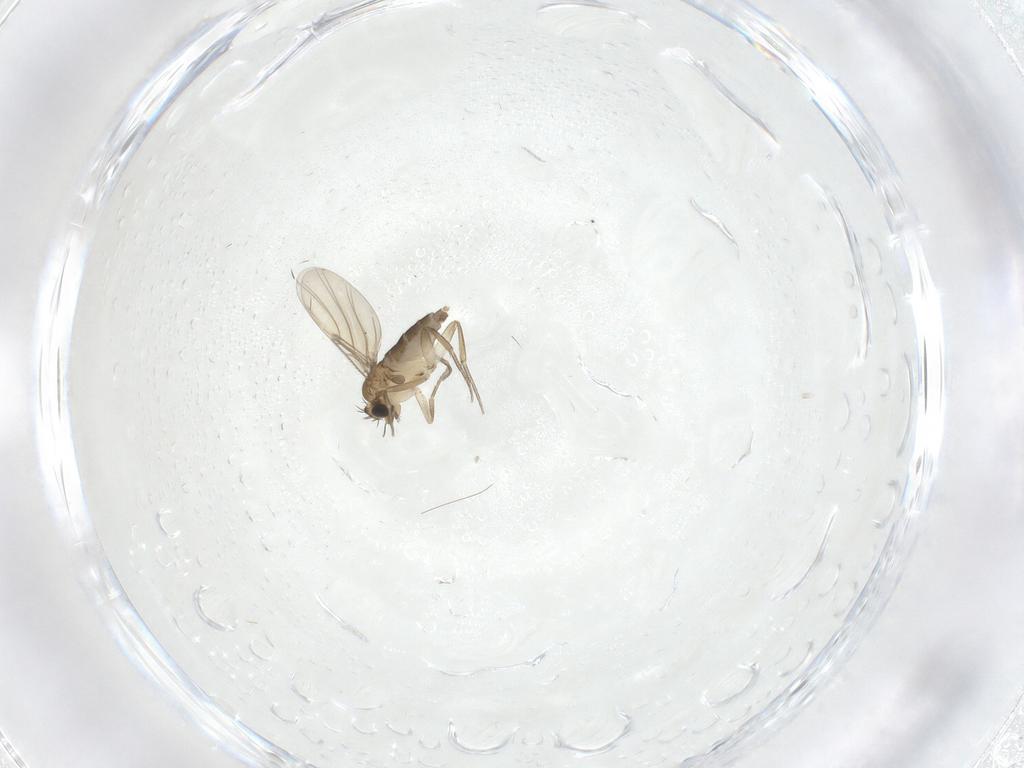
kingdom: Animalia
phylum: Arthropoda
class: Insecta
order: Diptera
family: Phoridae
